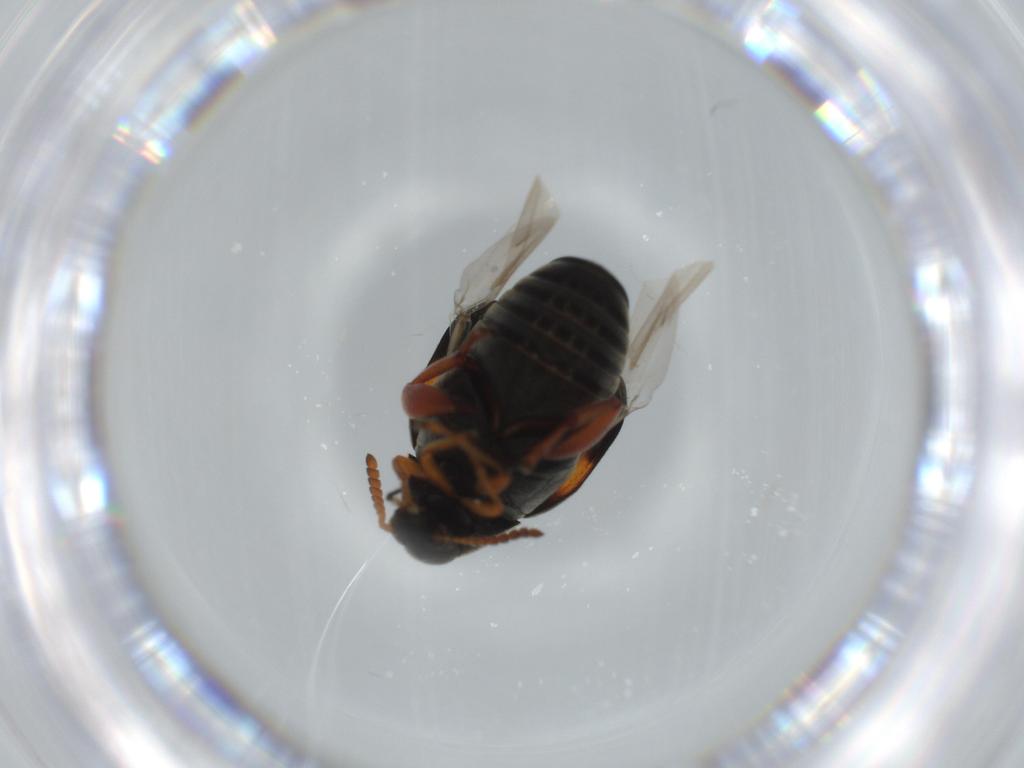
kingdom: Animalia
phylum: Arthropoda
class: Insecta
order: Coleoptera
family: Chrysomelidae
